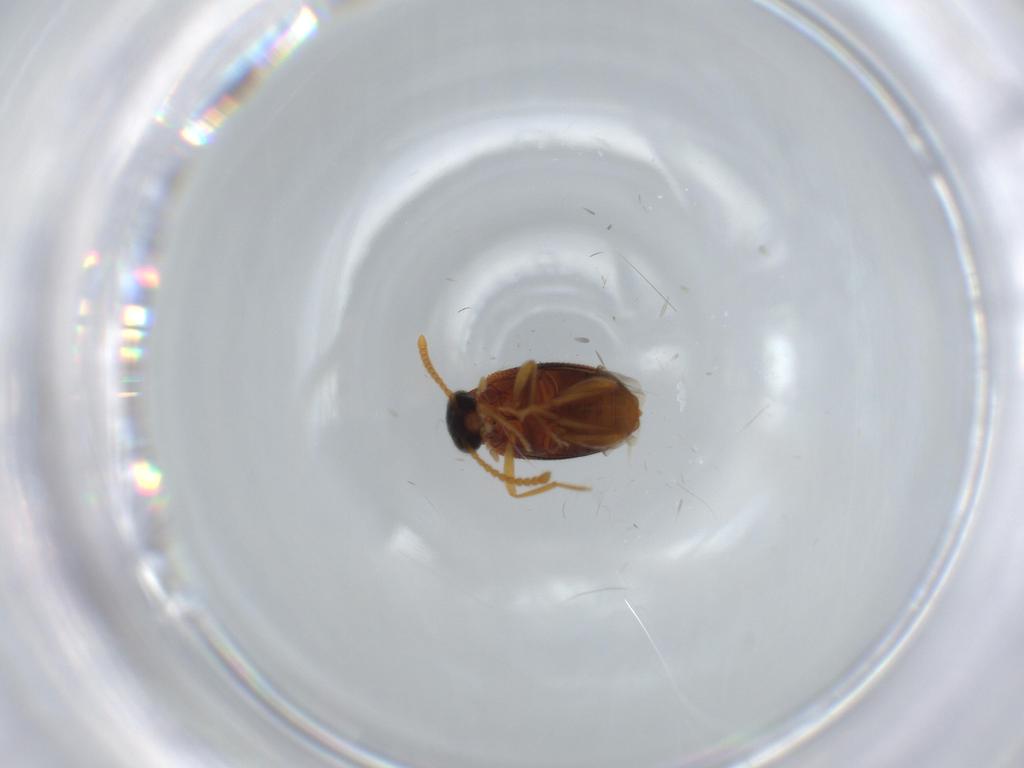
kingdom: Animalia
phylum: Arthropoda
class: Insecta
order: Coleoptera
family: Aderidae
